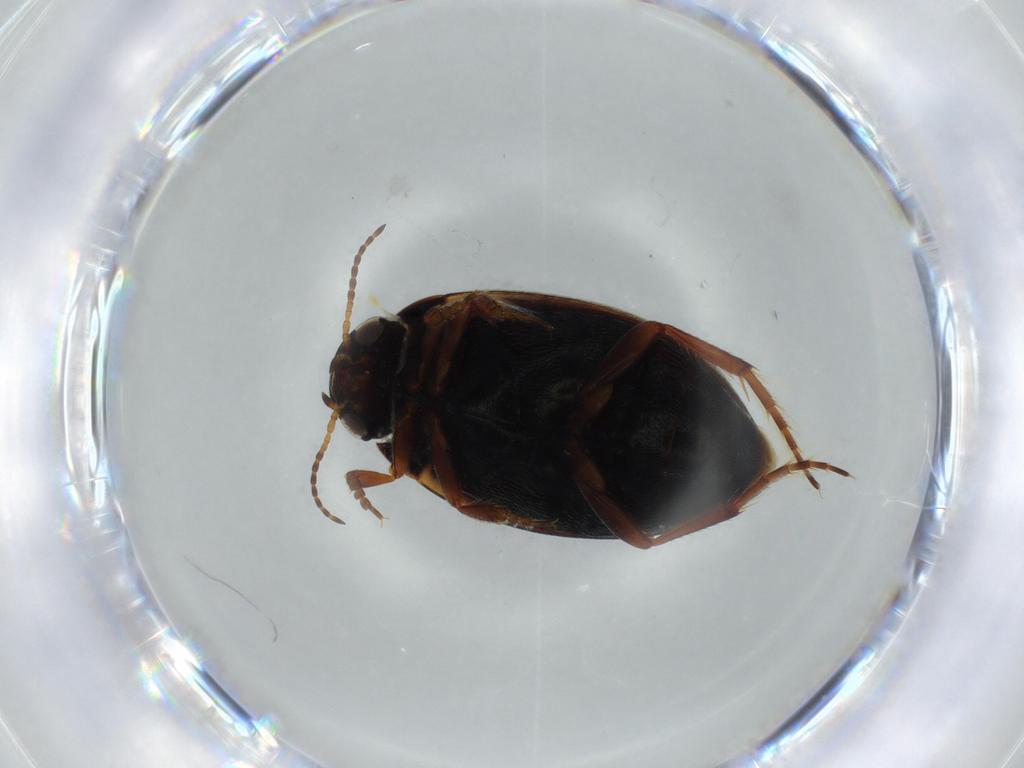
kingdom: Animalia
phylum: Arthropoda
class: Insecta
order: Coleoptera
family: Dytiscidae
